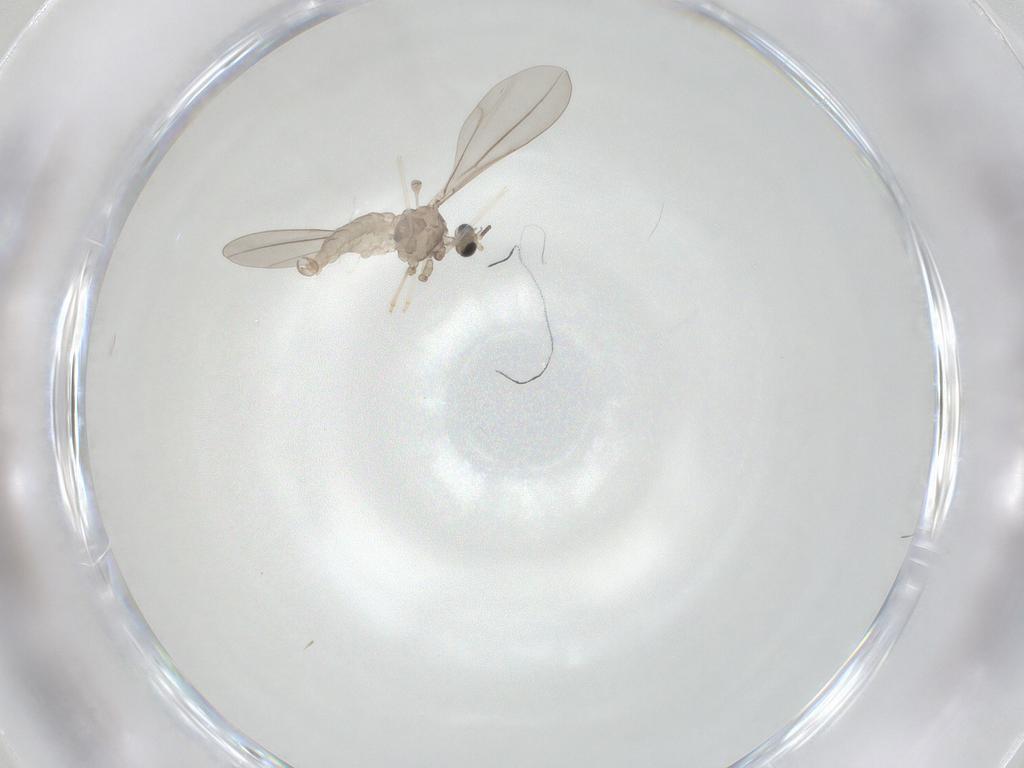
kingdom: Animalia
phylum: Arthropoda
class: Insecta
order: Diptera
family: Cecidomyiidae
